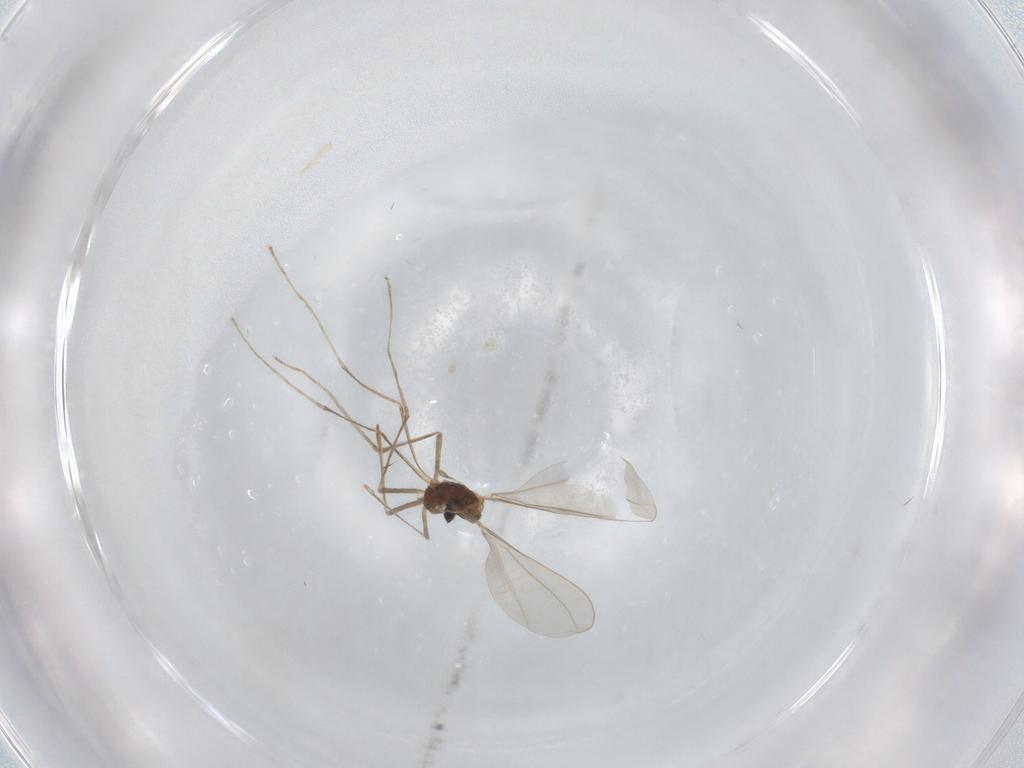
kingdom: Animalia
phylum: Arthropoda
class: Insecta
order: Diptera
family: Cecidomyiidae
